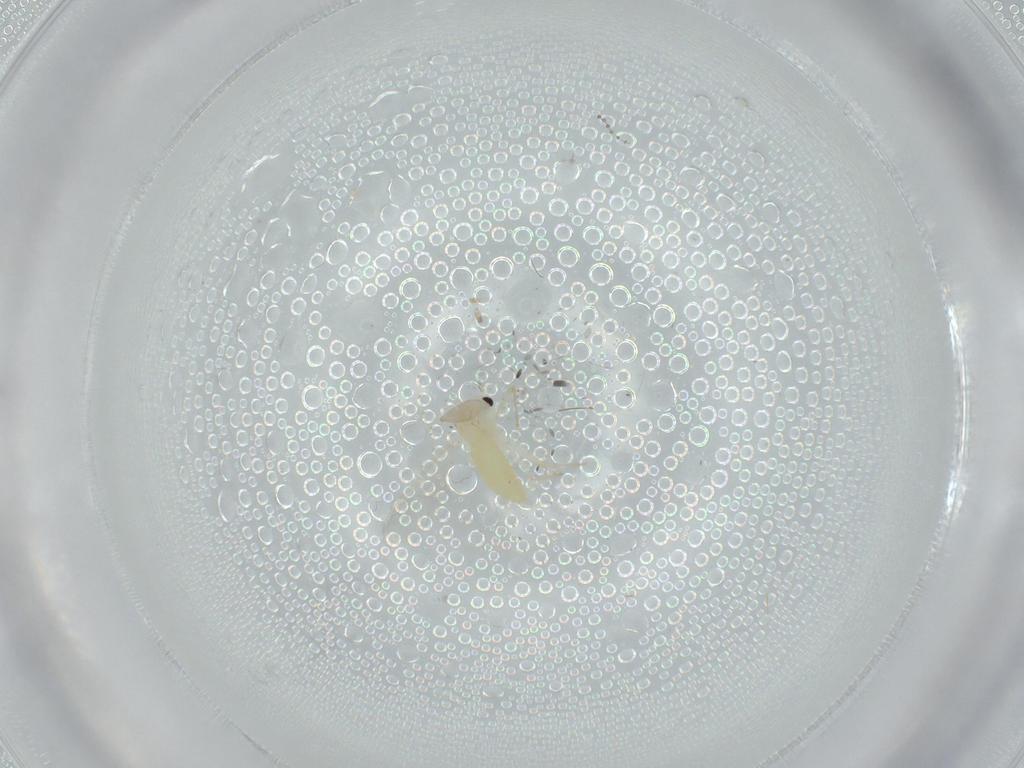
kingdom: Animalia
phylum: Arthropoda
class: Insecta
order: Diptera
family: Chironomidae
